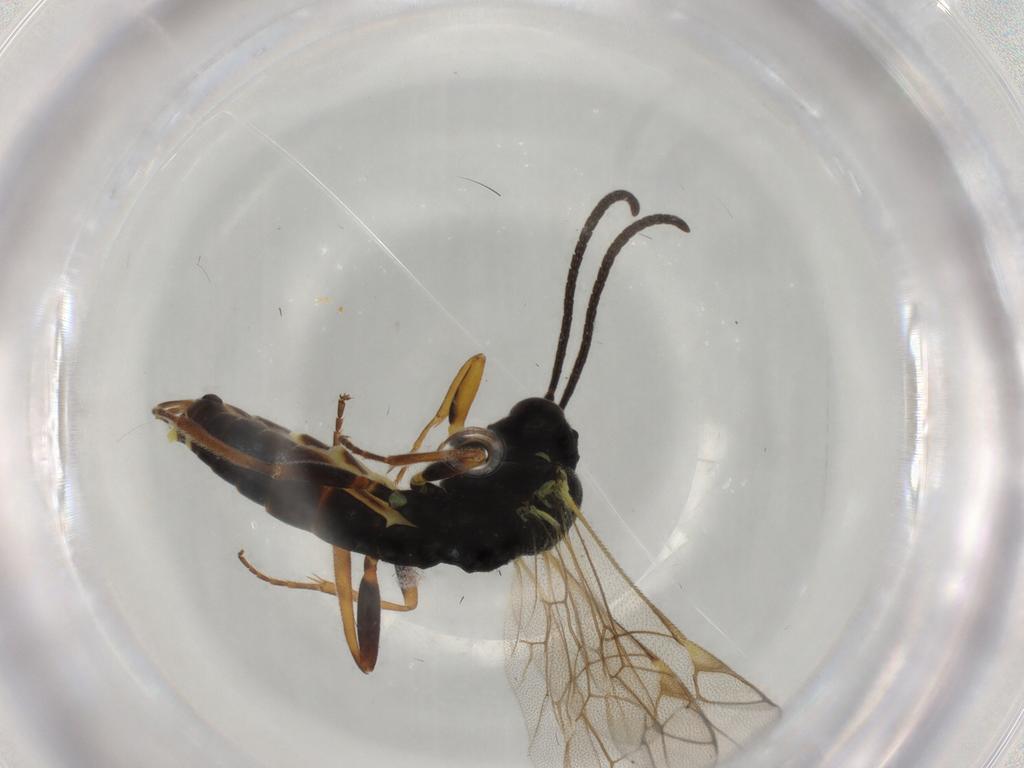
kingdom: Animalia
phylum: Arthropoda
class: Insecta
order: Hymenoptera
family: Ichneumonidae
